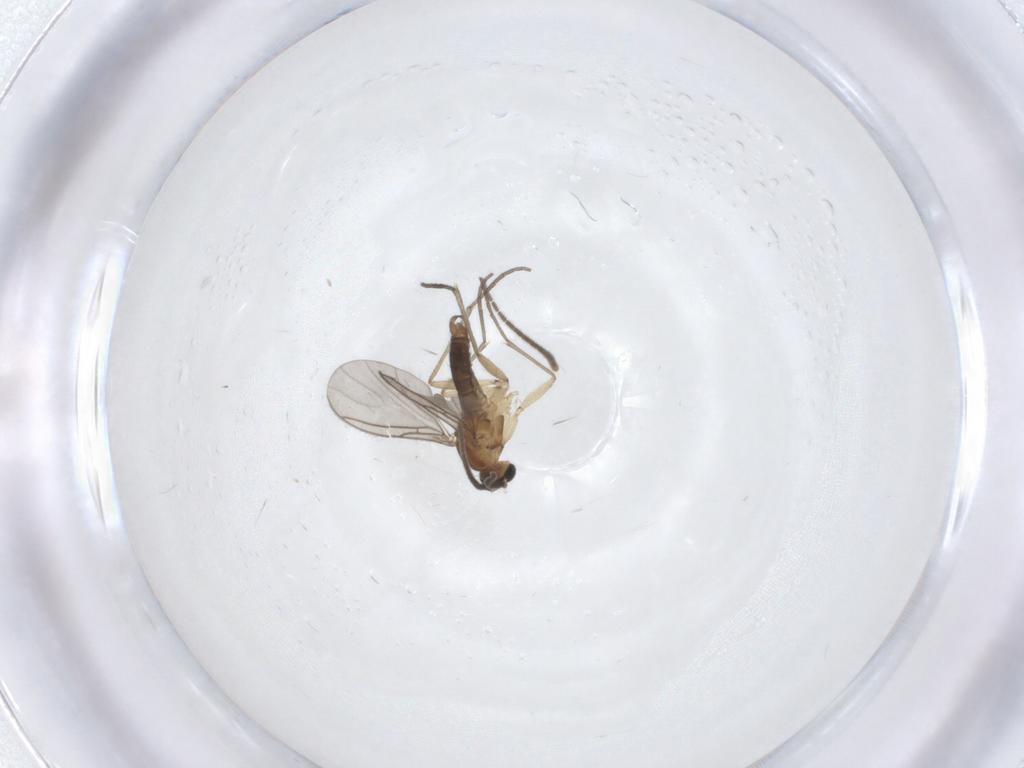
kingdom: Animalia
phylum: Arthropoda
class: Insecta
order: Diptera
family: Sciaridae
